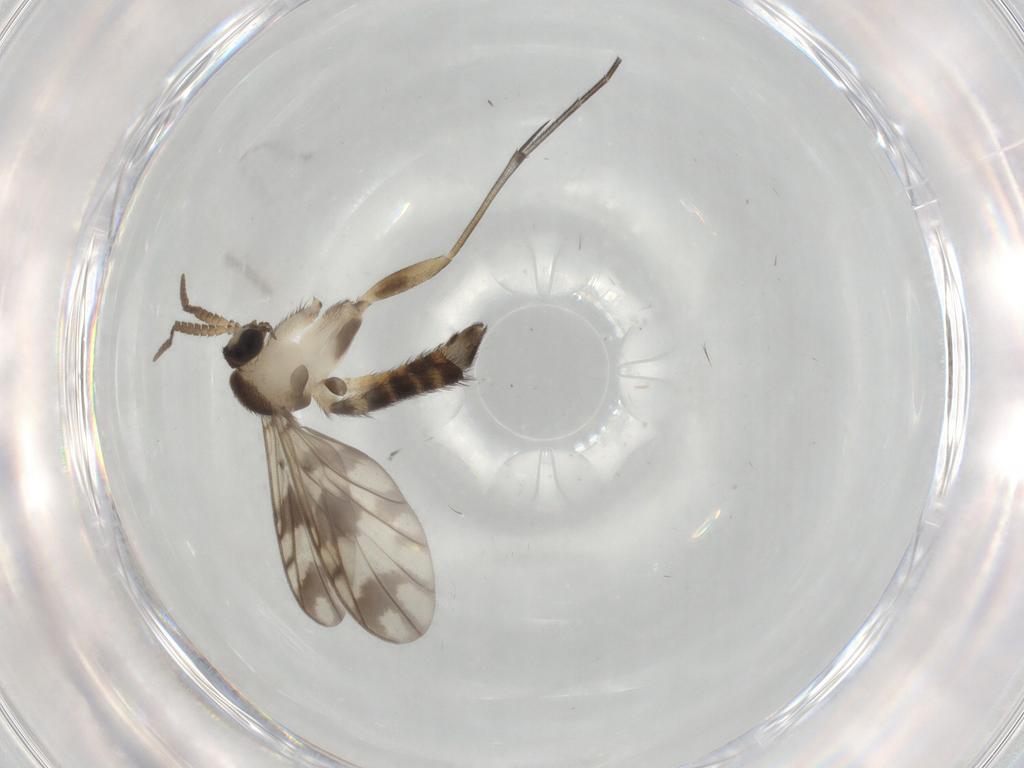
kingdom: Animalia
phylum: Arthropoda
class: Insecta
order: Diptera
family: Keroplatidae
